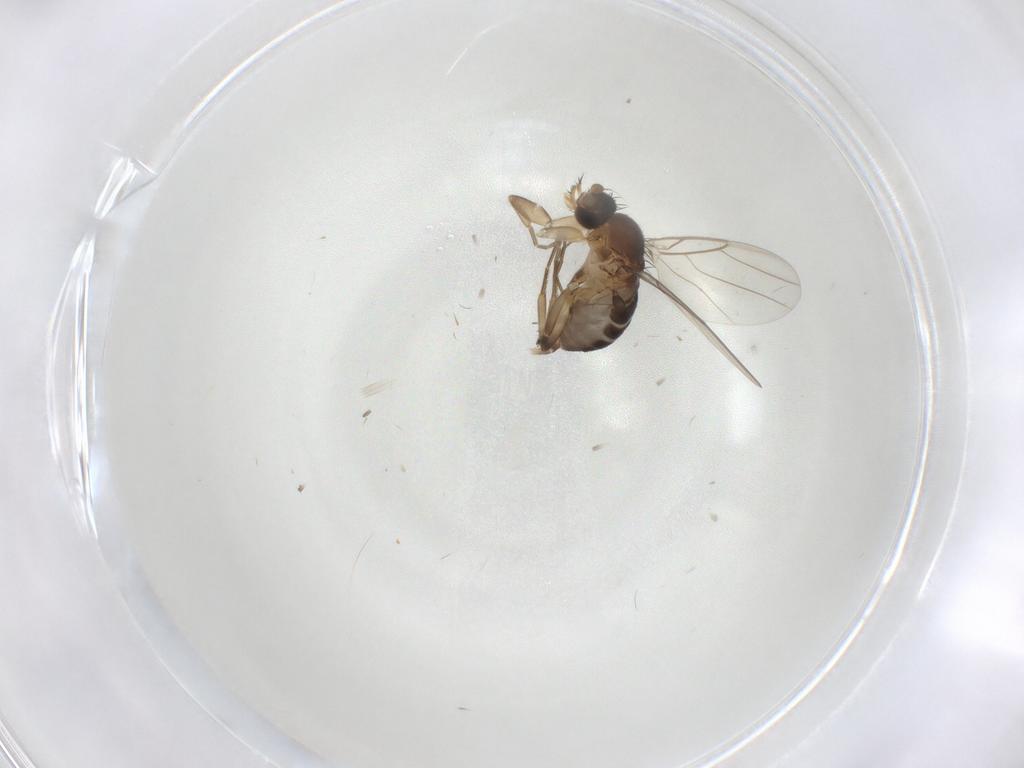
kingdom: Animalia
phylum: Arthropoda
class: Insecta
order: Diptera
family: Phoridae
